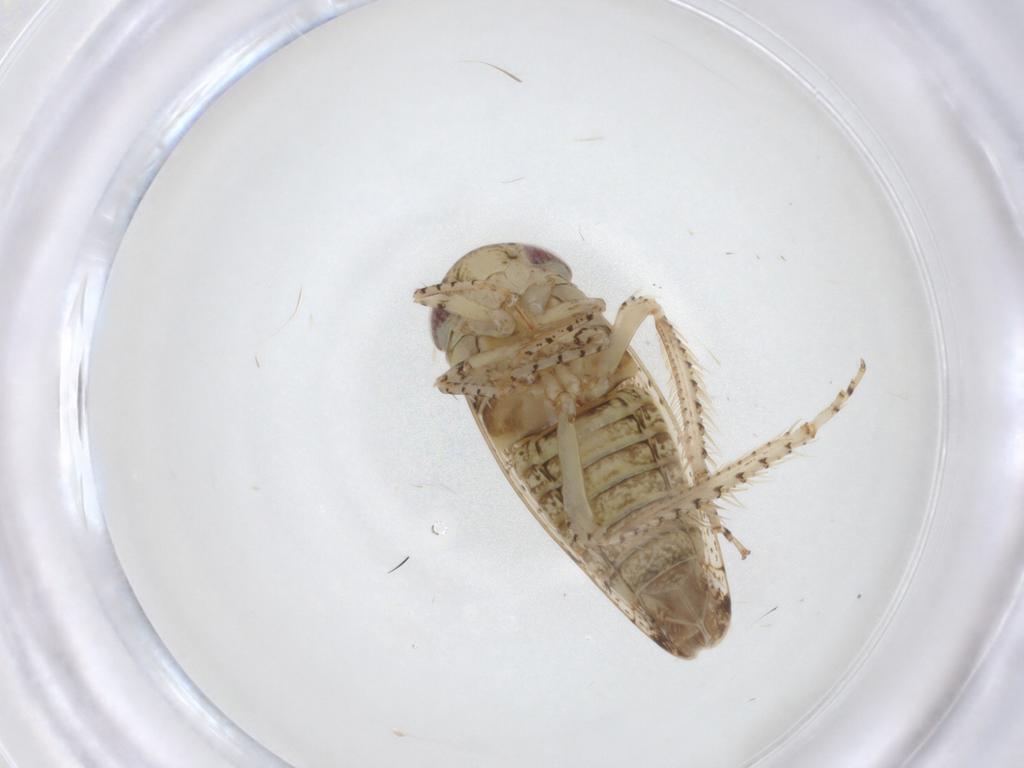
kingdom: Animalia
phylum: Arthropoda
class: Insecta
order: Hemiptera
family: Cicadellidae
